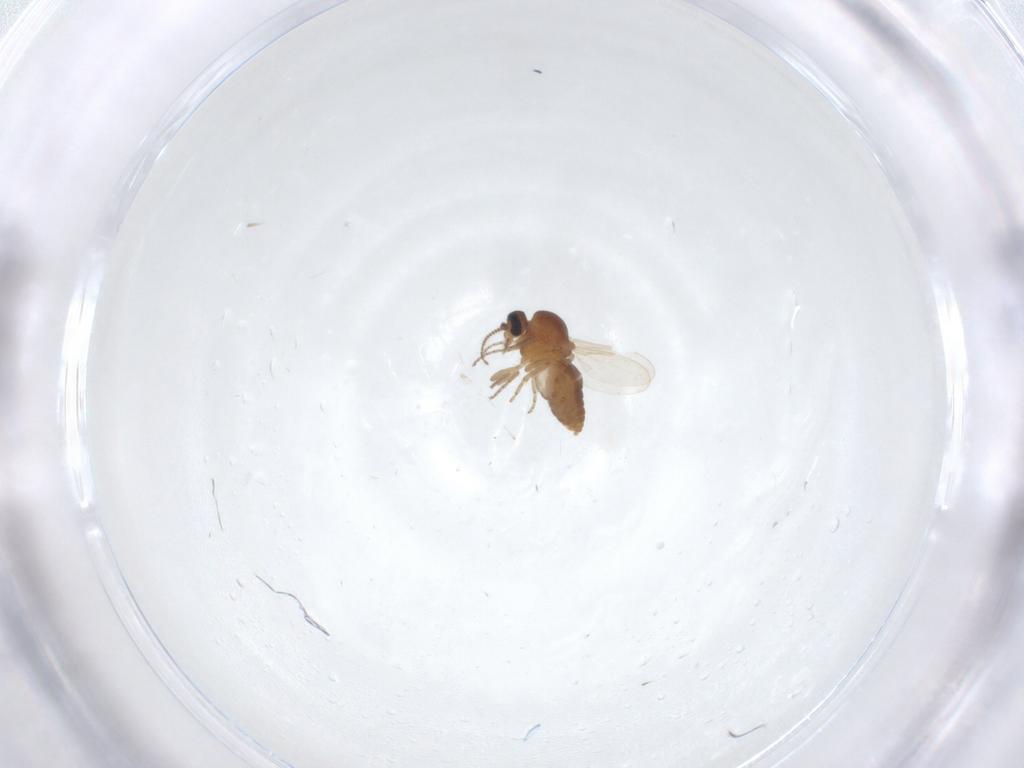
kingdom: Animalia
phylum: Arthropoda
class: Insecta
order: Diptera
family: Ceratopogonidae
